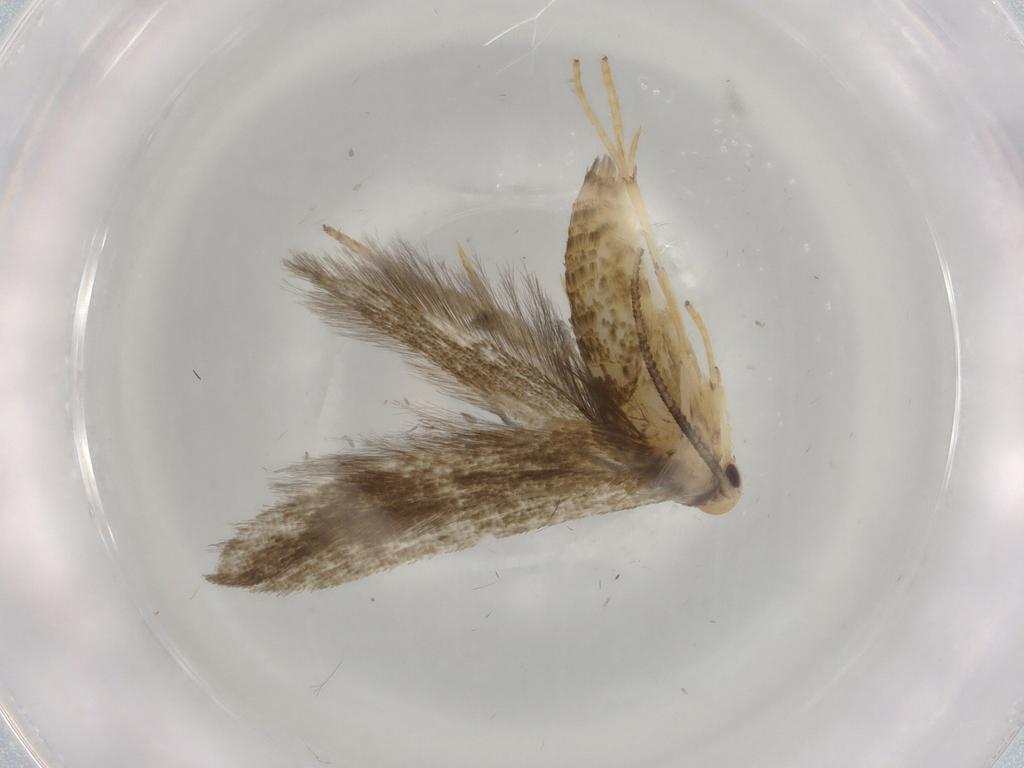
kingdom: Animalia
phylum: Arthropoda
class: Insecta
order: Lepidoptera
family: Stathmopodidae
